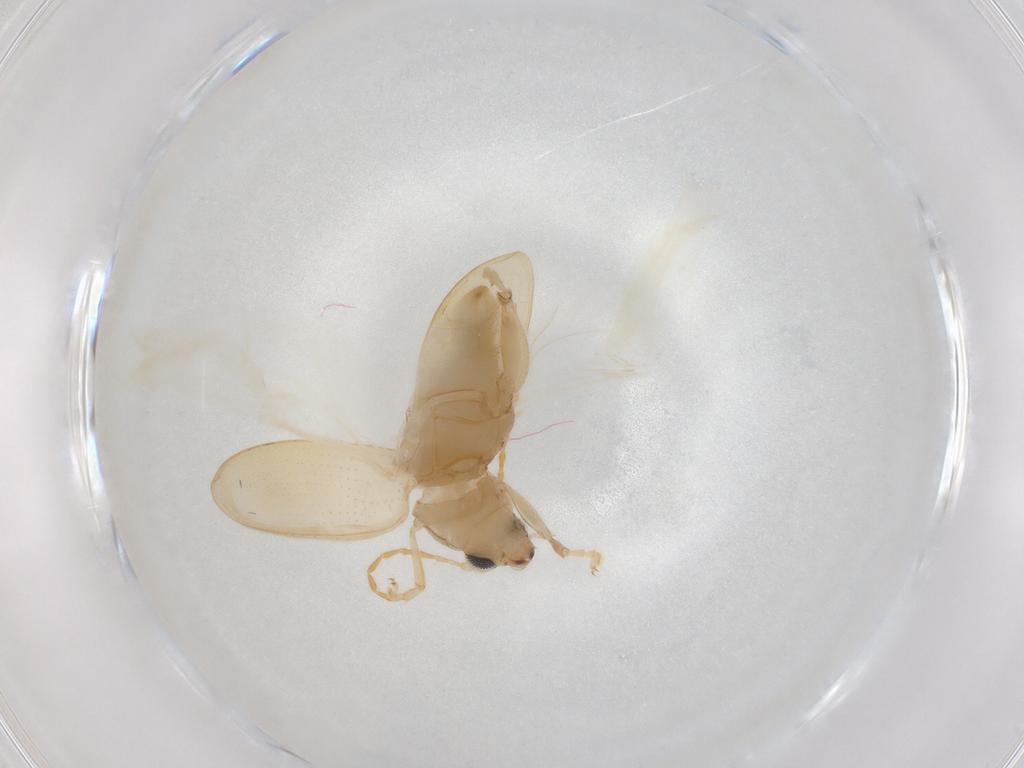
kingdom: Animalia
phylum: Arthropoda
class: Insecta
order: Coleoptera
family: Chrysomelidae
